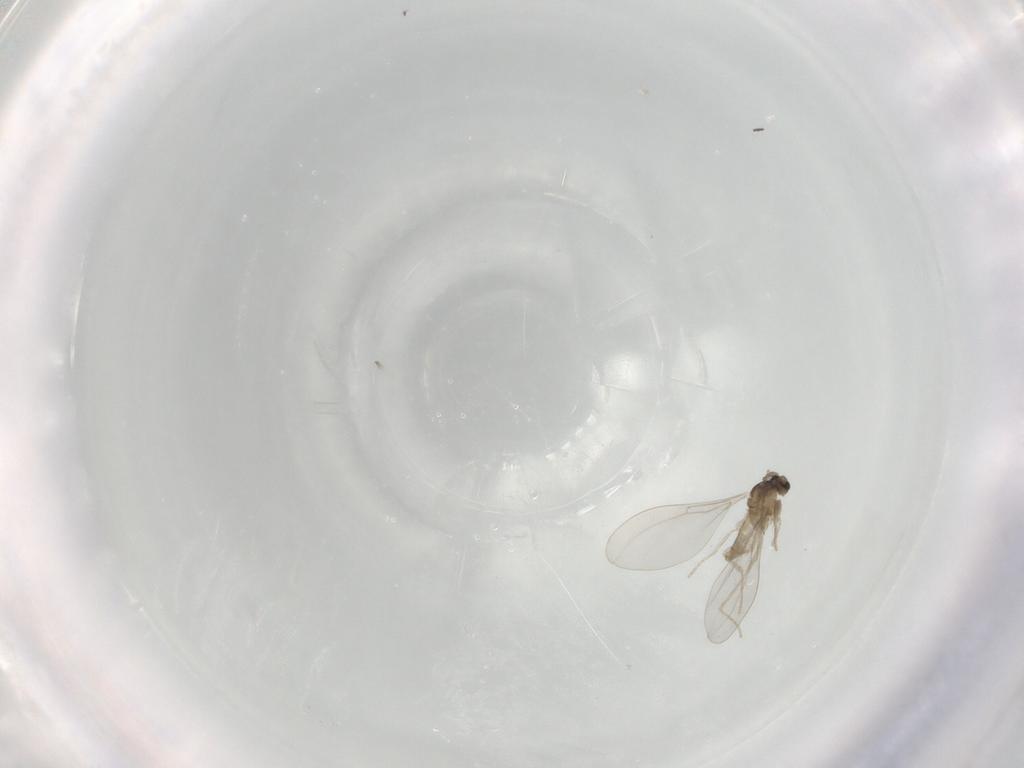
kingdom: Animalia
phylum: Arthropoda
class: Insecta
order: Diptera
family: Cecidomyiidae
